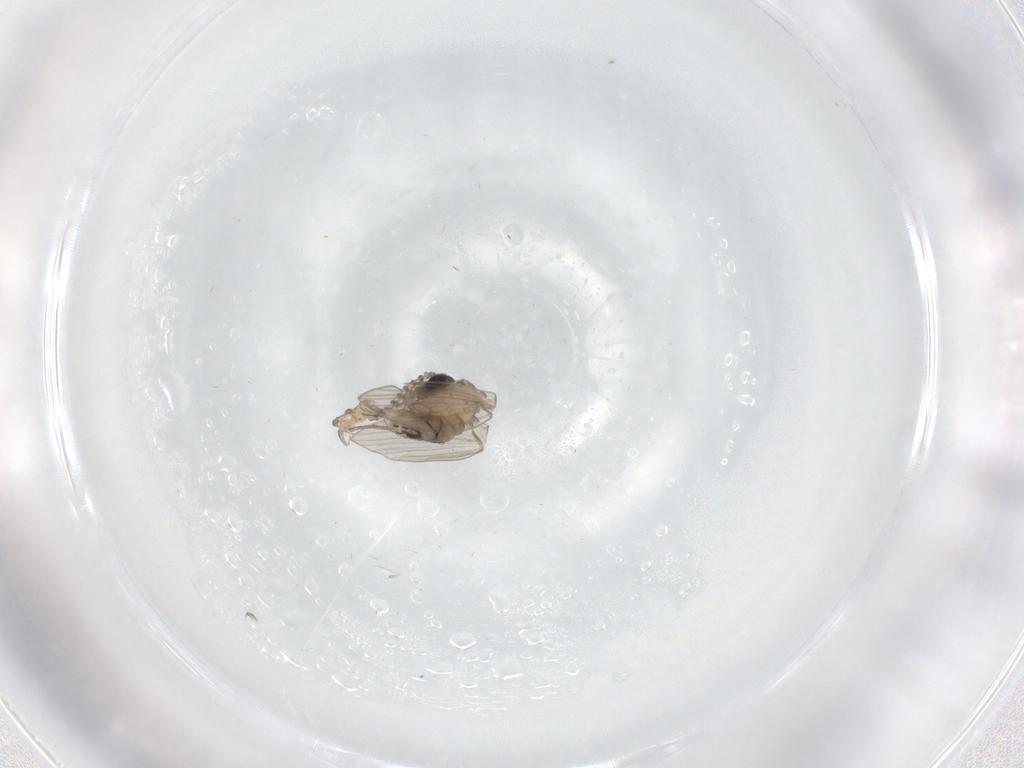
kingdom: Animalia
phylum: Arthropoda
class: Insecta
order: Diptera
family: Psychodidae
